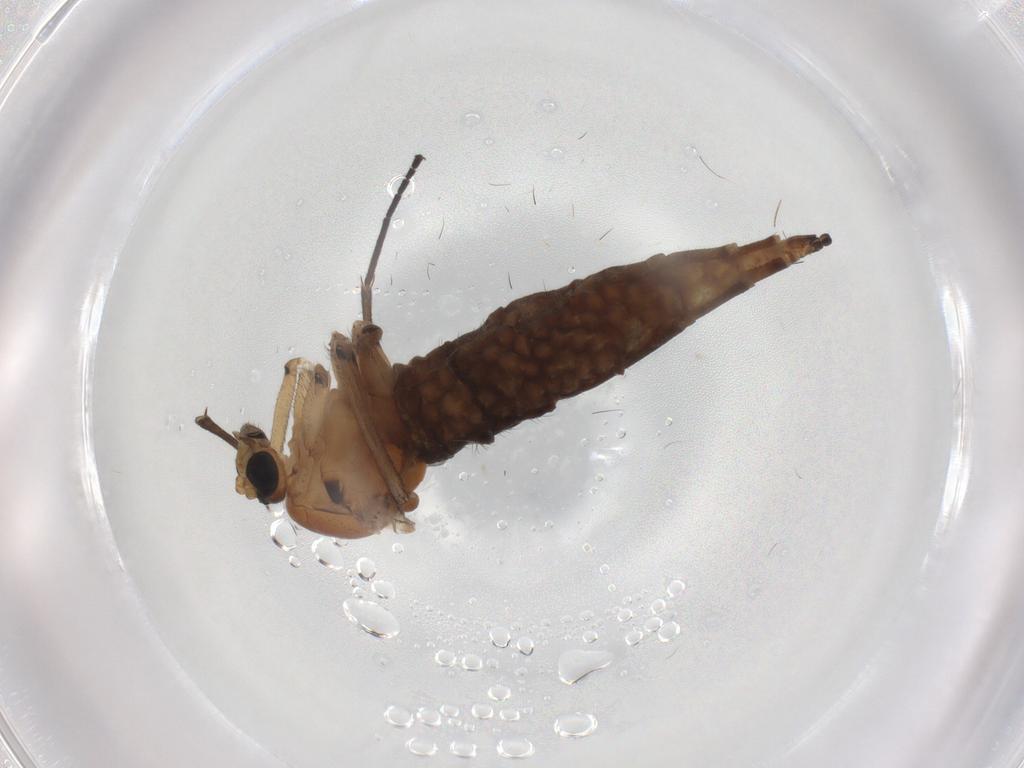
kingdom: Animalia
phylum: Arthropoda
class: Insecta
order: Diptera
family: Sciaridae
